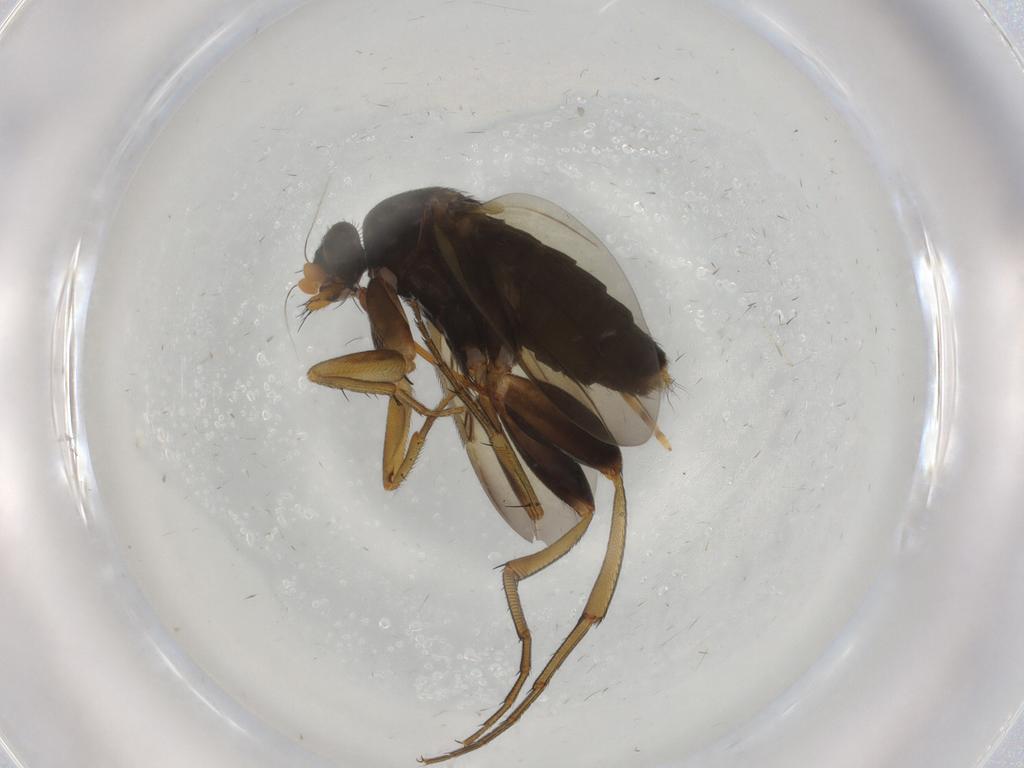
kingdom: Animalia
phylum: Arthropoda
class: Insecta
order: Diptera
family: Phoridae
